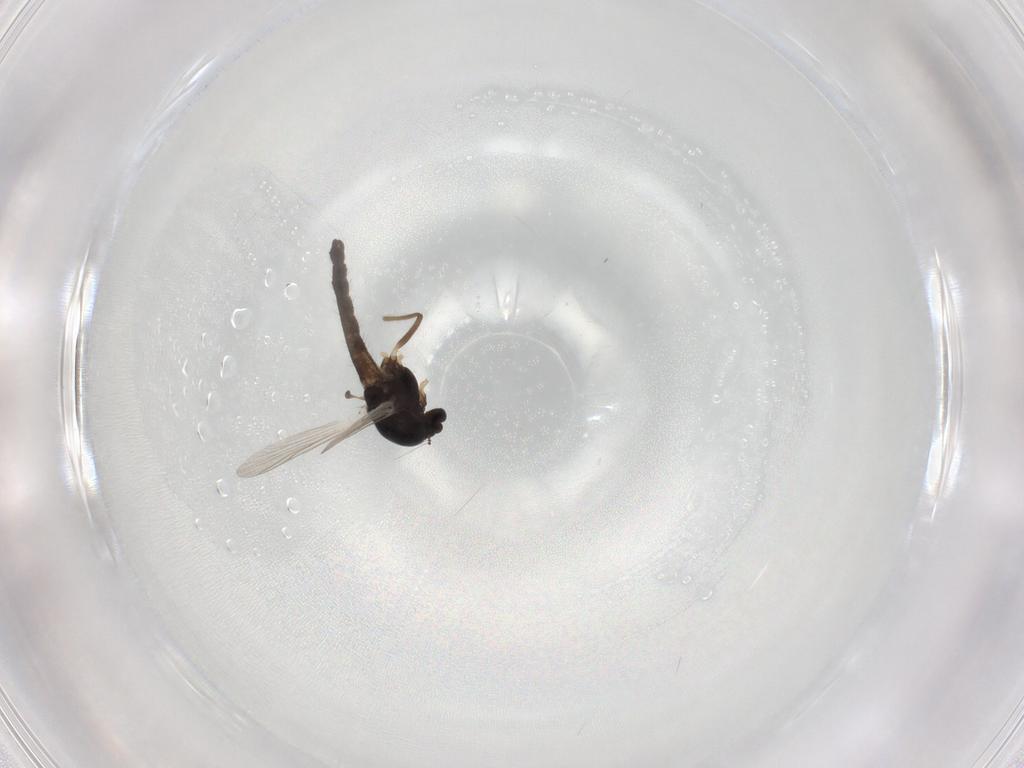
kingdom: Animalia
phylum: Arthropoda
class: Insecta
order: Diptera
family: Chironomidae
